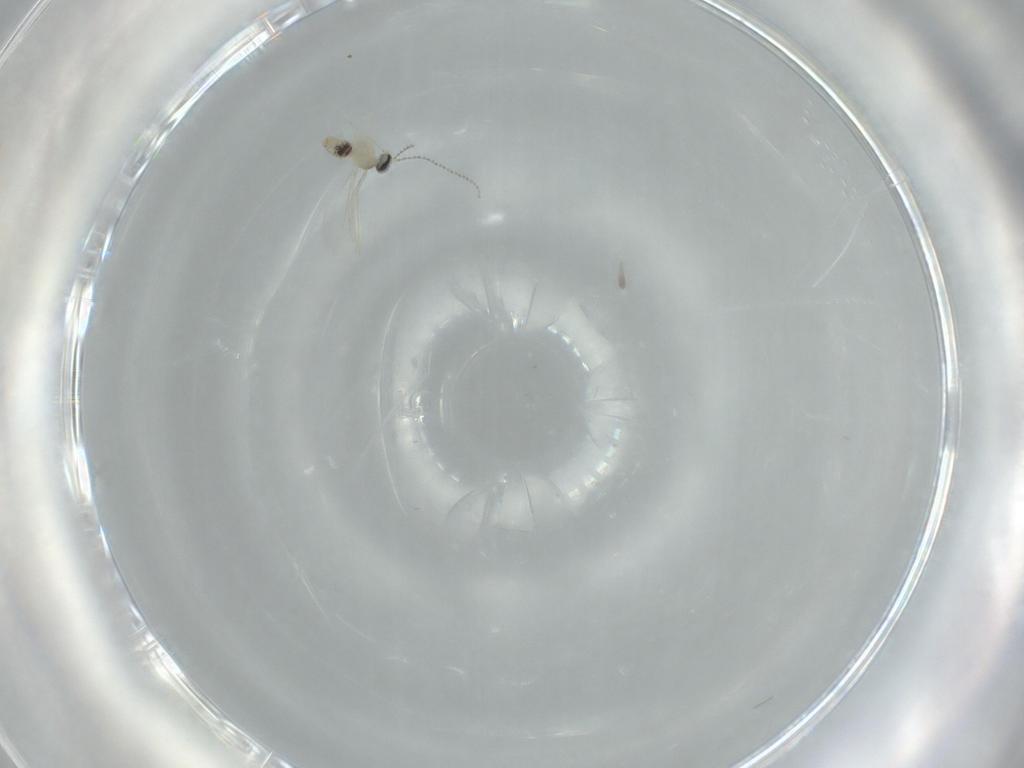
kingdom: Animalia
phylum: Arthropoda
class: Insecta
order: Diptera
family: Cecidomyiidae
